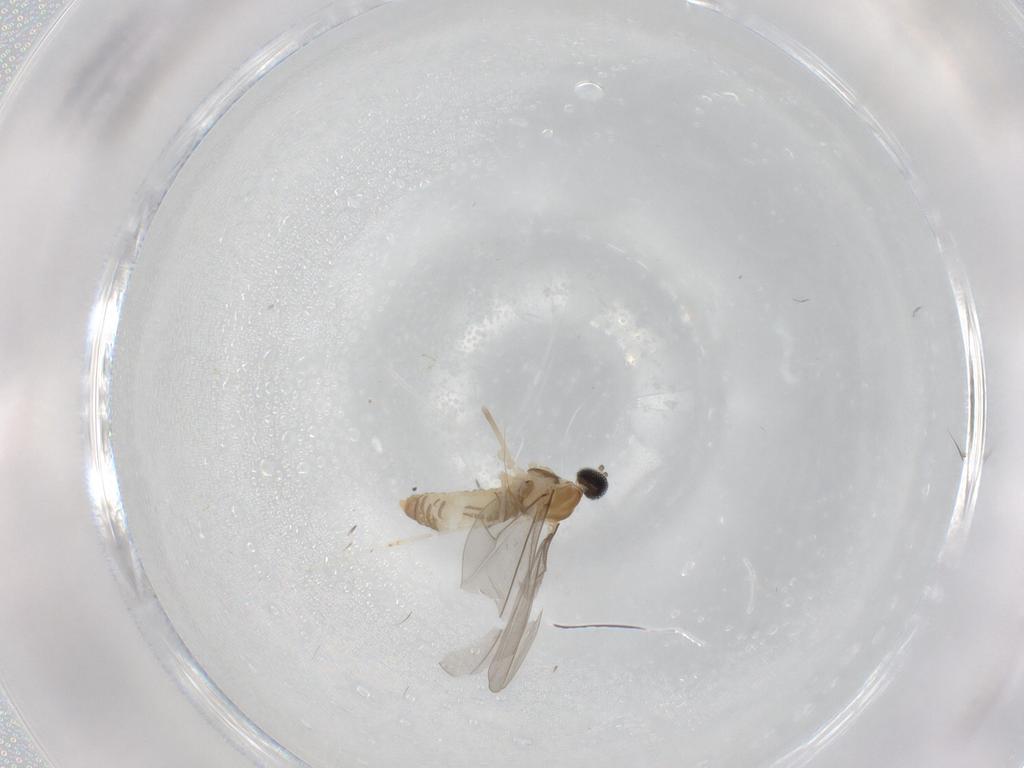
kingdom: Animalia
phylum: Arthropoda
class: Insecta
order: Diptera
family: Cecidomyiidae
